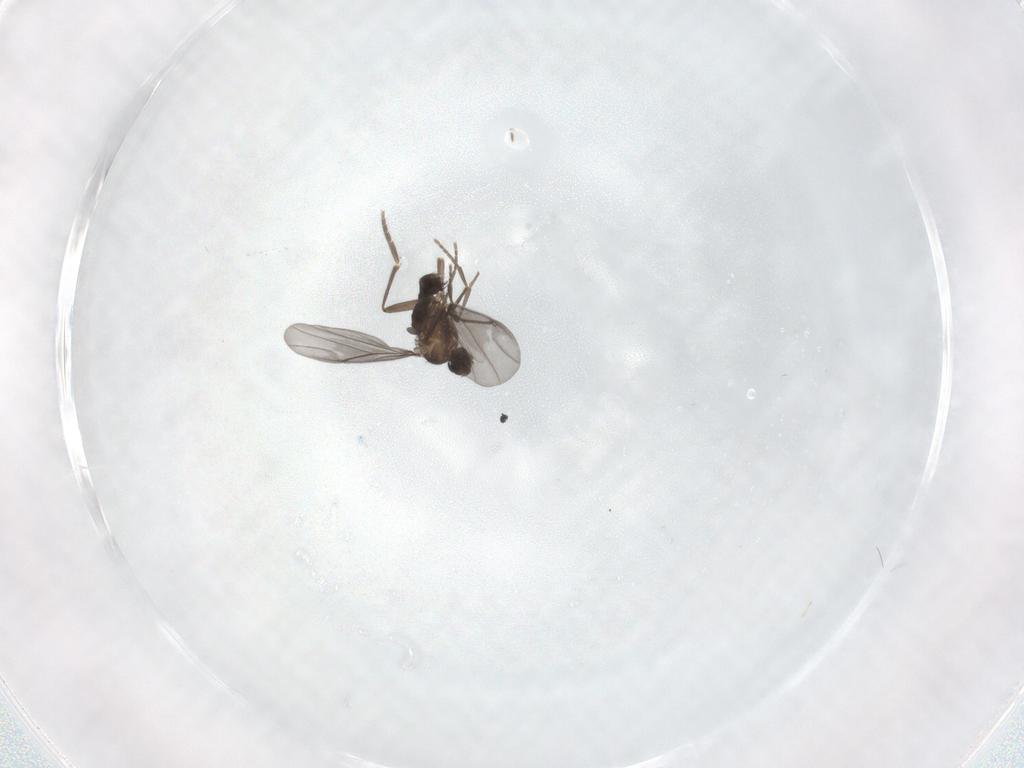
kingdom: Animalia
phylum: Arthropoda
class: Insecta
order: Diptera
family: Phoridae
